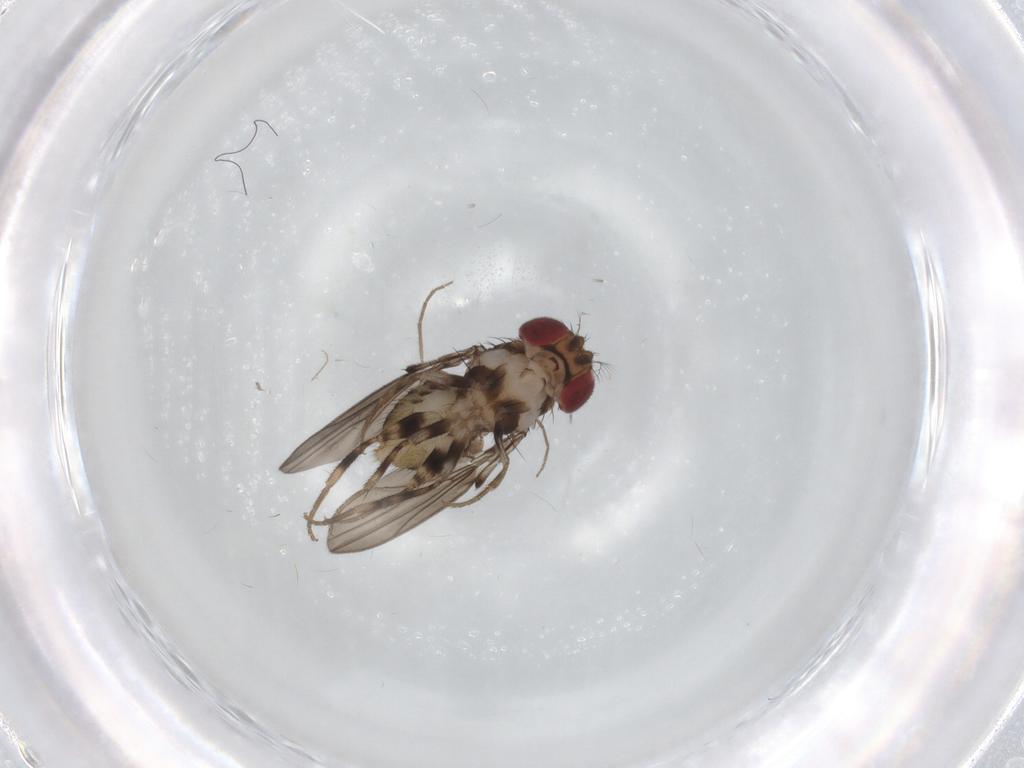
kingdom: Animalia
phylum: Arthropoda
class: Insecta
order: Diptera
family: Drosophilidae
